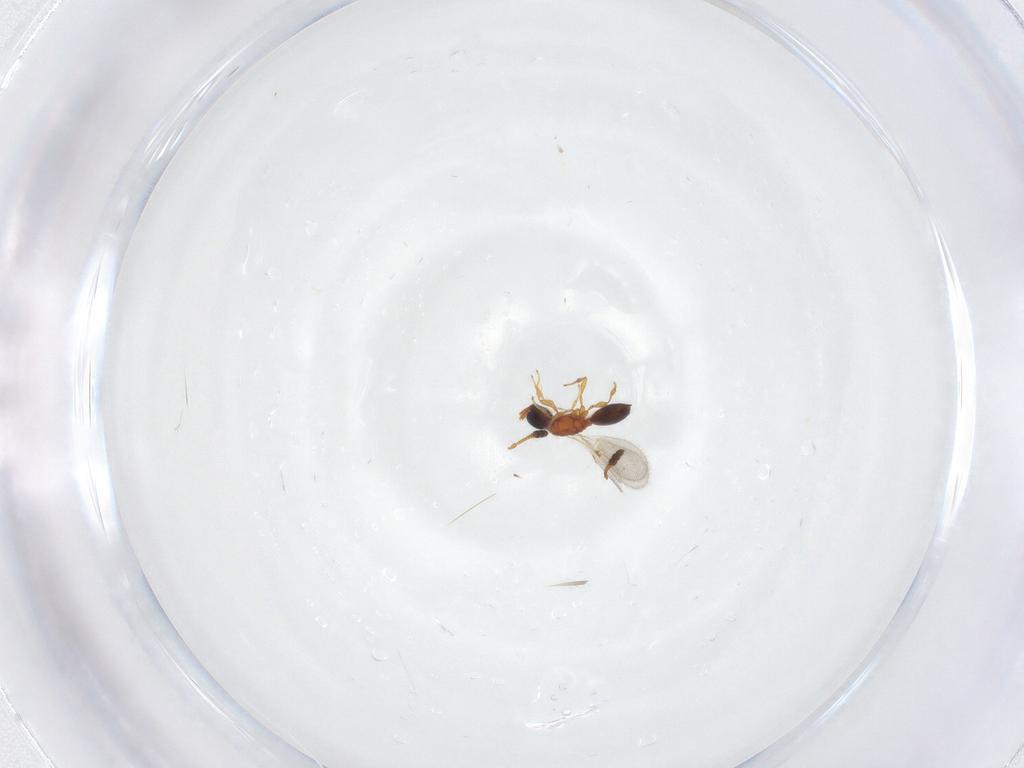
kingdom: Animalia
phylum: Arthropoda
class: Insecta
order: Hymenoptera
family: Diapriidae
